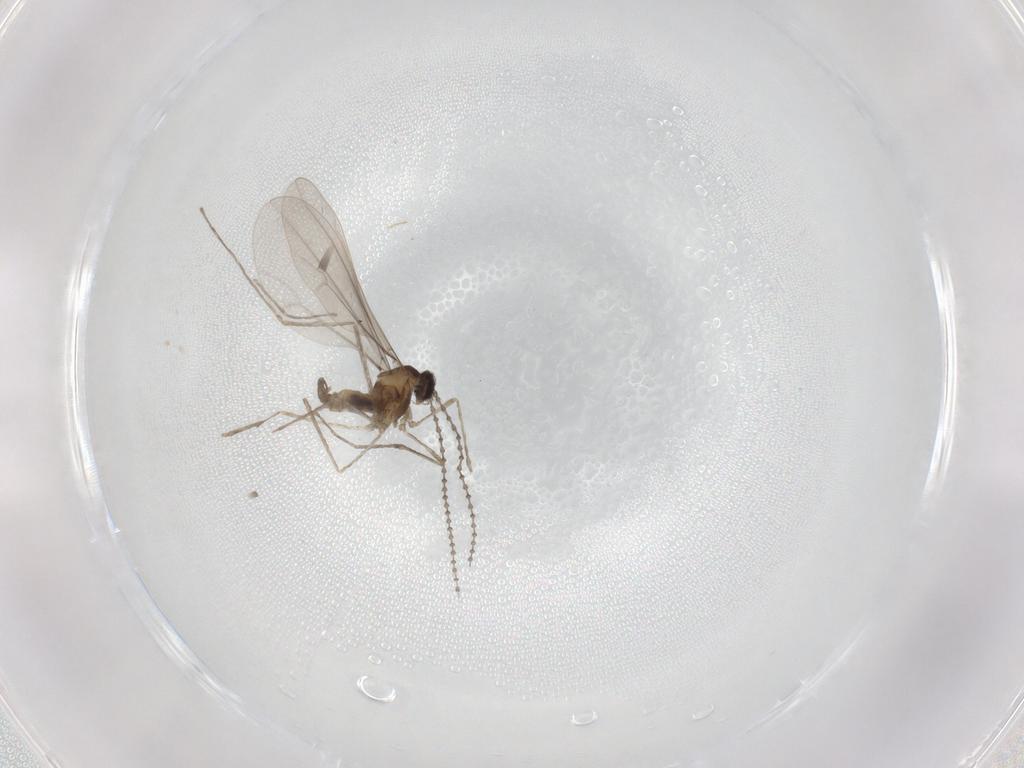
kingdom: Animalia
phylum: Arthropoda
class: Insecta
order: Diptera
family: Cecidomyiidae
